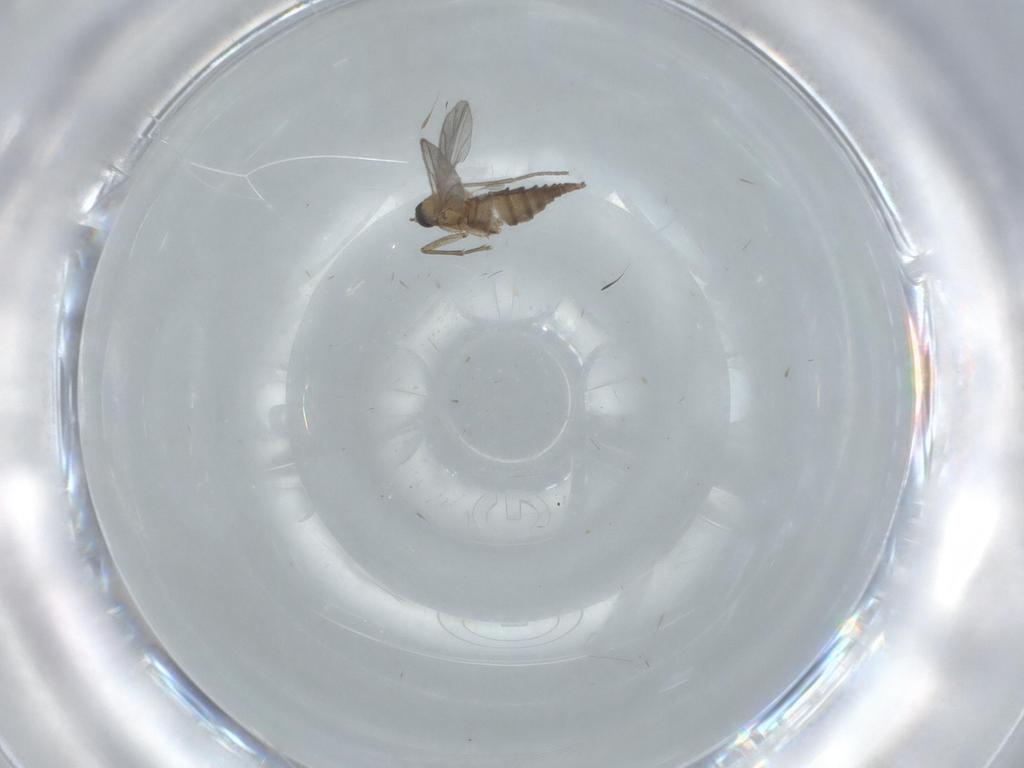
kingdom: Animalia
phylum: Arthropoda
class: Insecta
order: Diptera
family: Sciaridae
